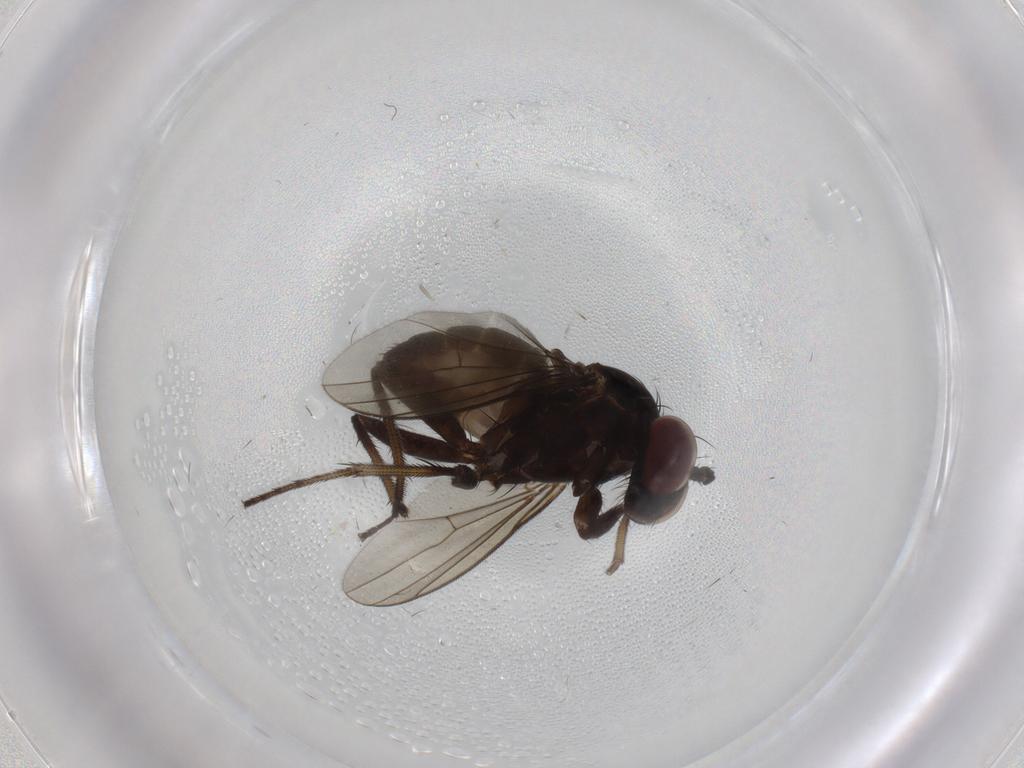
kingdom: Animalia
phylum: Arthropoda
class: Insecta
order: Diptera
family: Dolichopodidae
